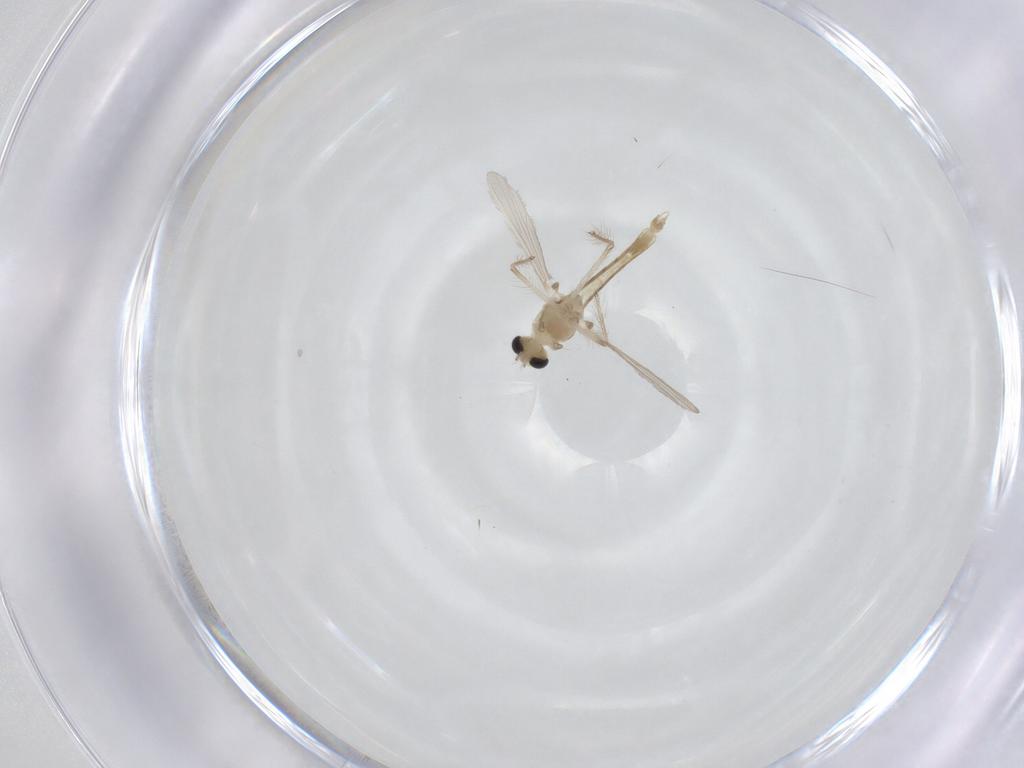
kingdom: Animalia
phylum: Arthropoda
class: Insecta
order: Diptera
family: Chironomidae
